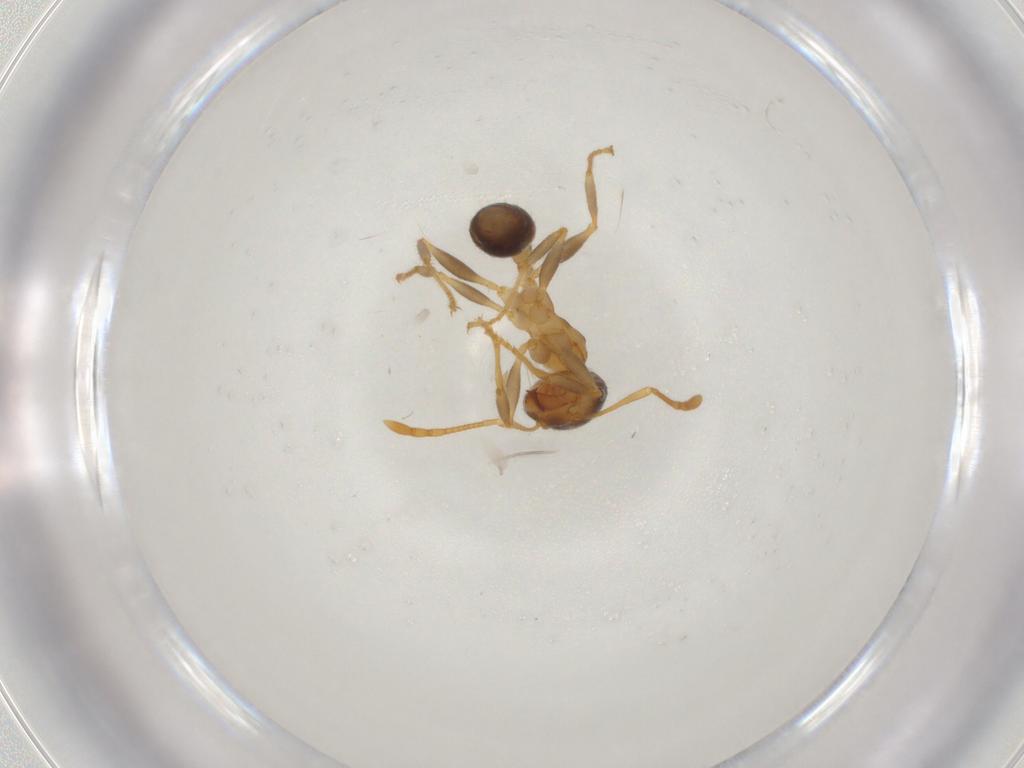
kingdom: Animalia
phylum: Arthropoda
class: Insecta
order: Hymenoptera
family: Formicidae
